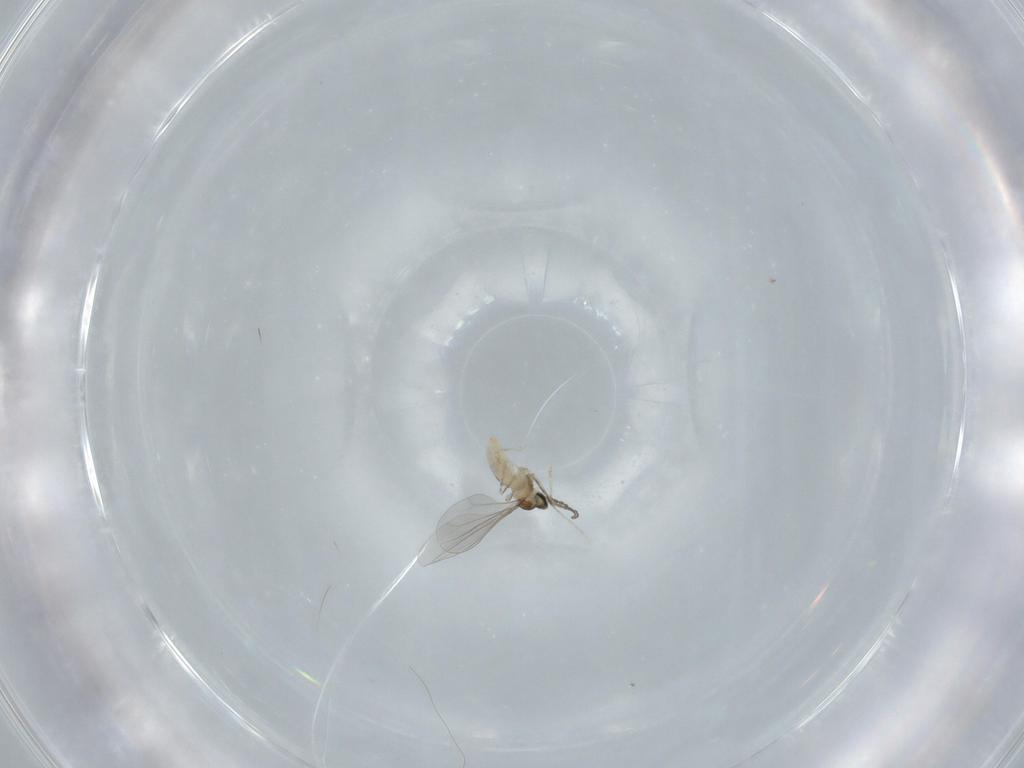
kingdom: Animalia
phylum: Arthropoda
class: Insecta
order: Diptera
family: Cecidomyiidae
